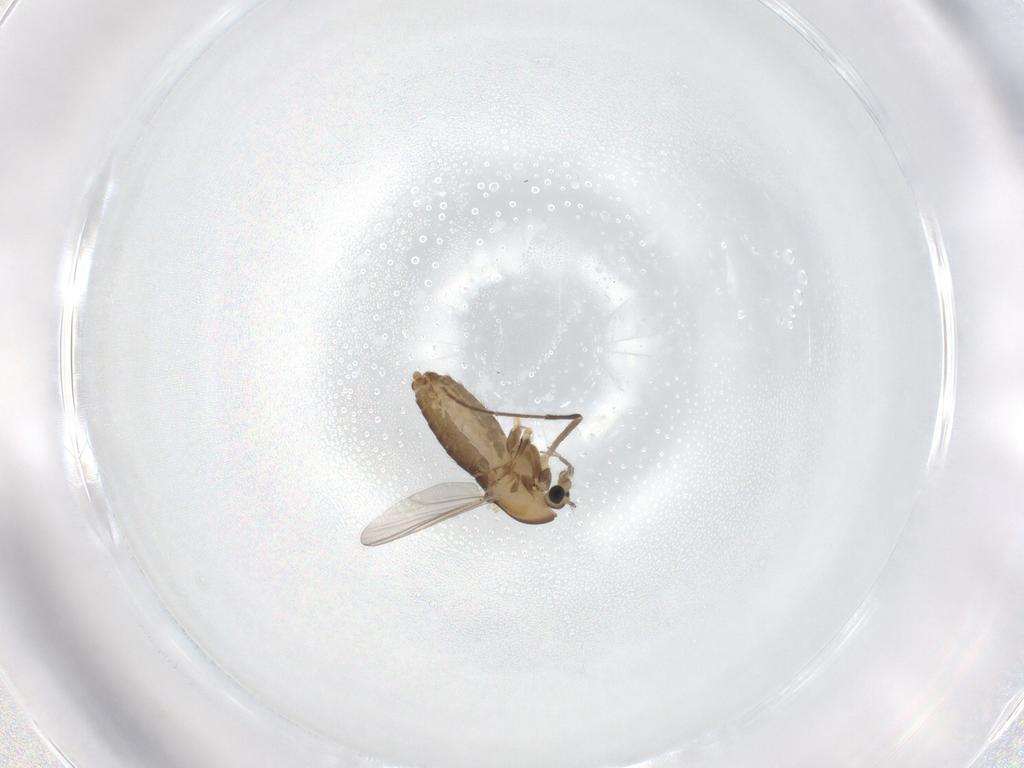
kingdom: Animalia
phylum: Arthropoda
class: Insecta
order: Diptera
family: Chironomidae
